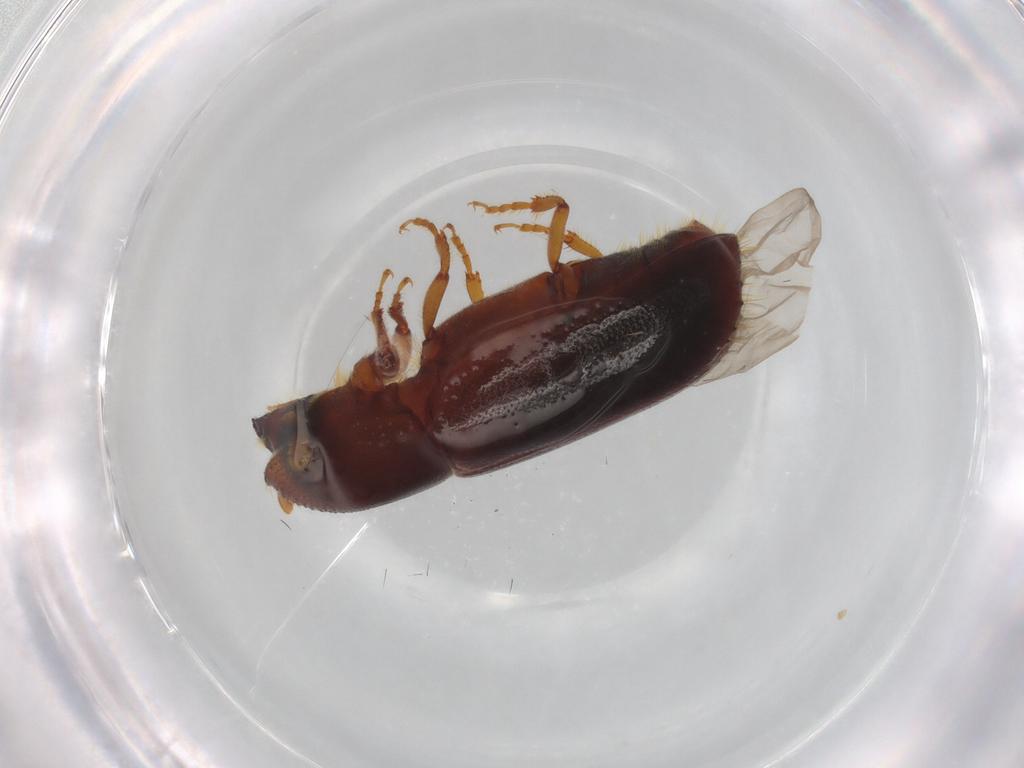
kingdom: Animalia
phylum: Arthropoda
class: Insecta
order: Coleoptera
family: Curculionidae
